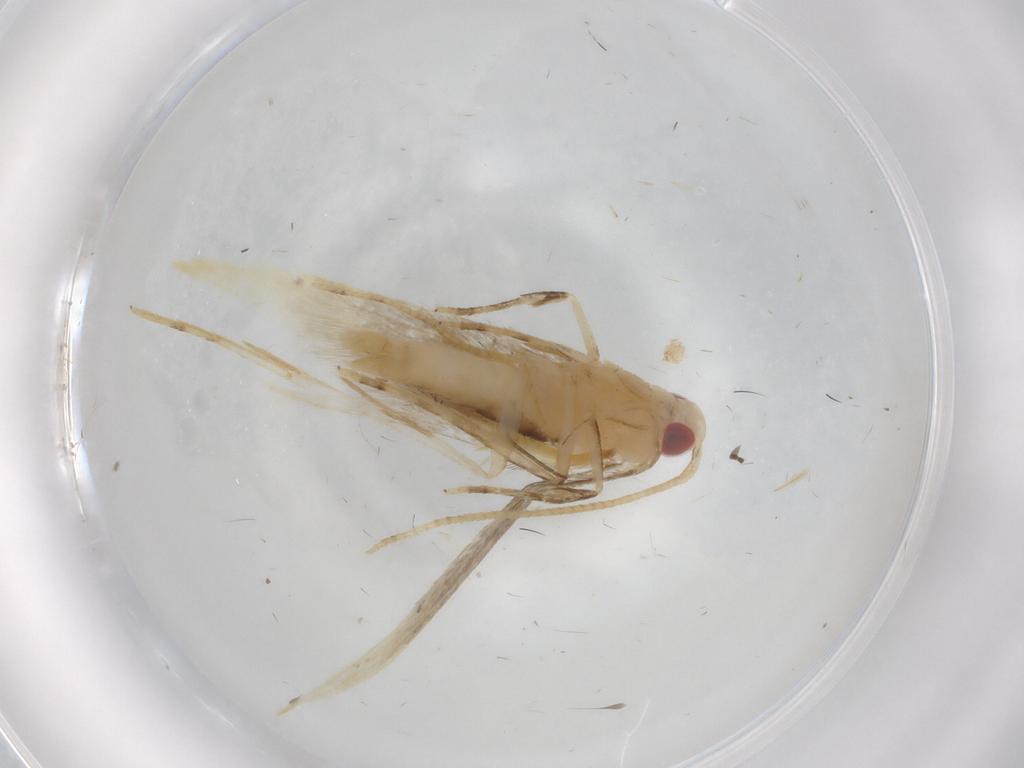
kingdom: Animalia
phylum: Arthropoda
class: Insecta
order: Lepidoptera
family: Cosmopterigidae
